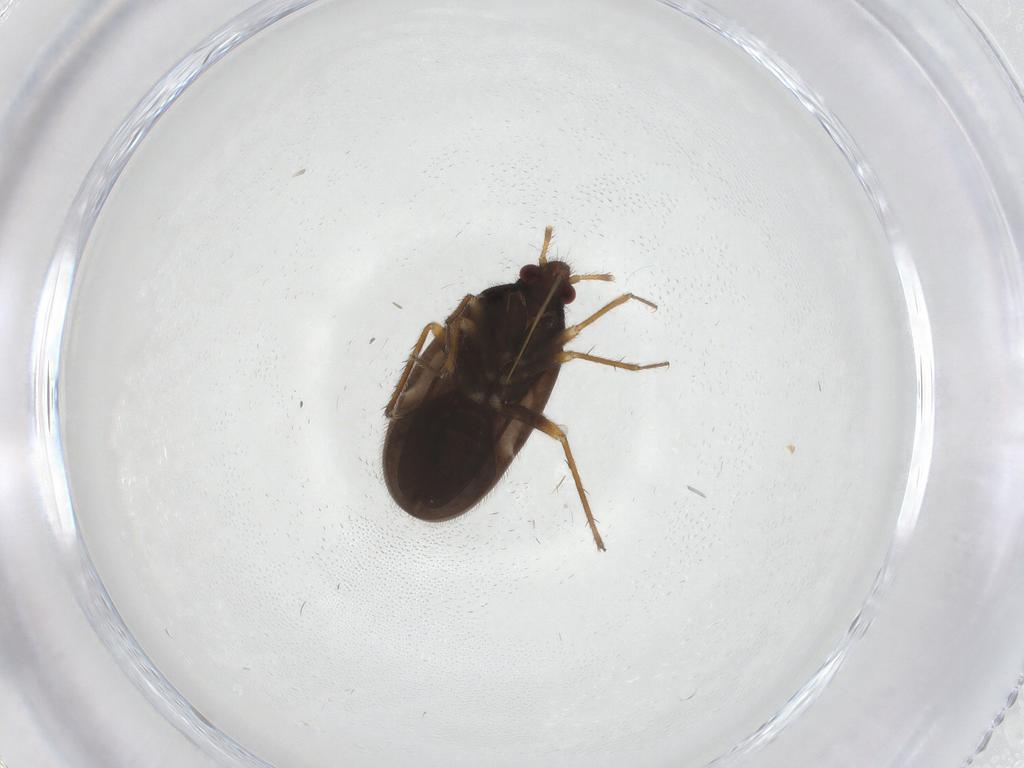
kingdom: Animalia
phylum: Arthropoda
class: Insecta
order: Hemiptera
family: Ceratocombidae
